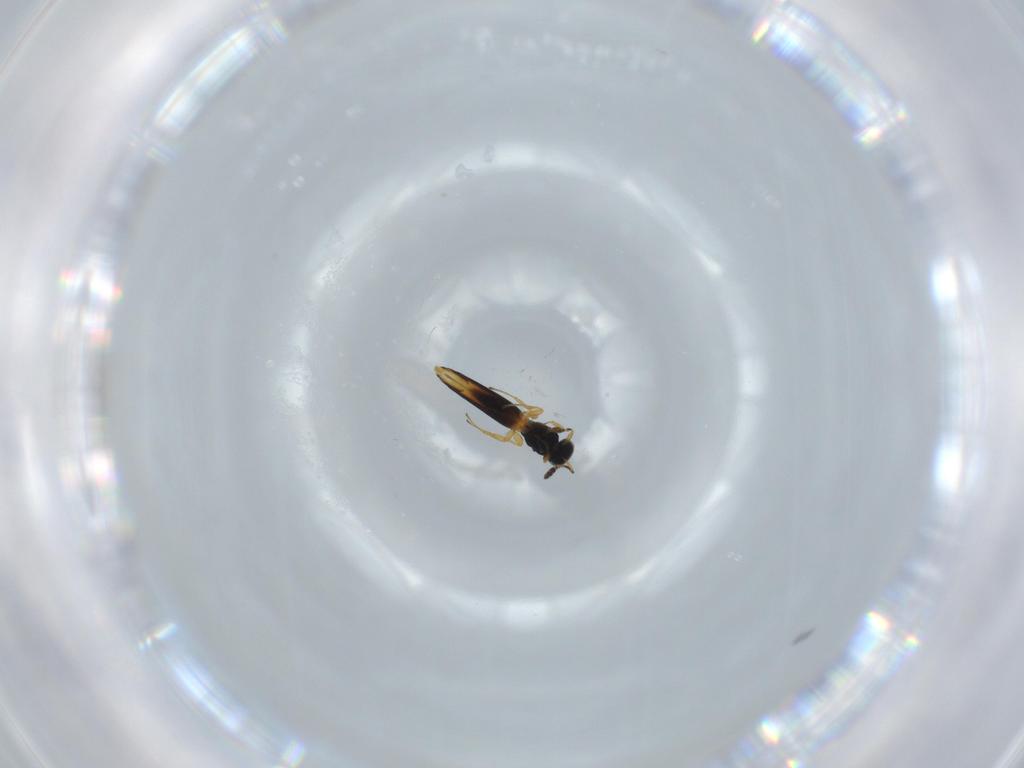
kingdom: Animalia
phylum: Arthropoda
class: Insecta
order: Hymenoptera
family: Scelionidae
